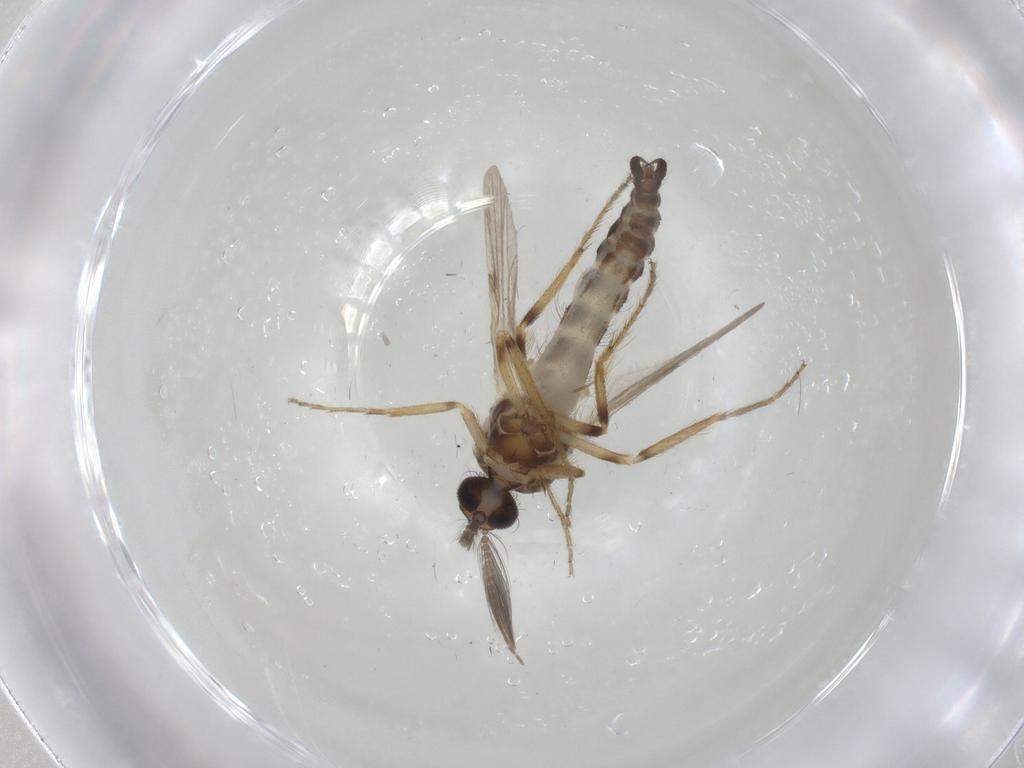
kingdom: Animalia
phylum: Arthropoda
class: Insecta
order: Diptera
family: Ceratopogonidae
